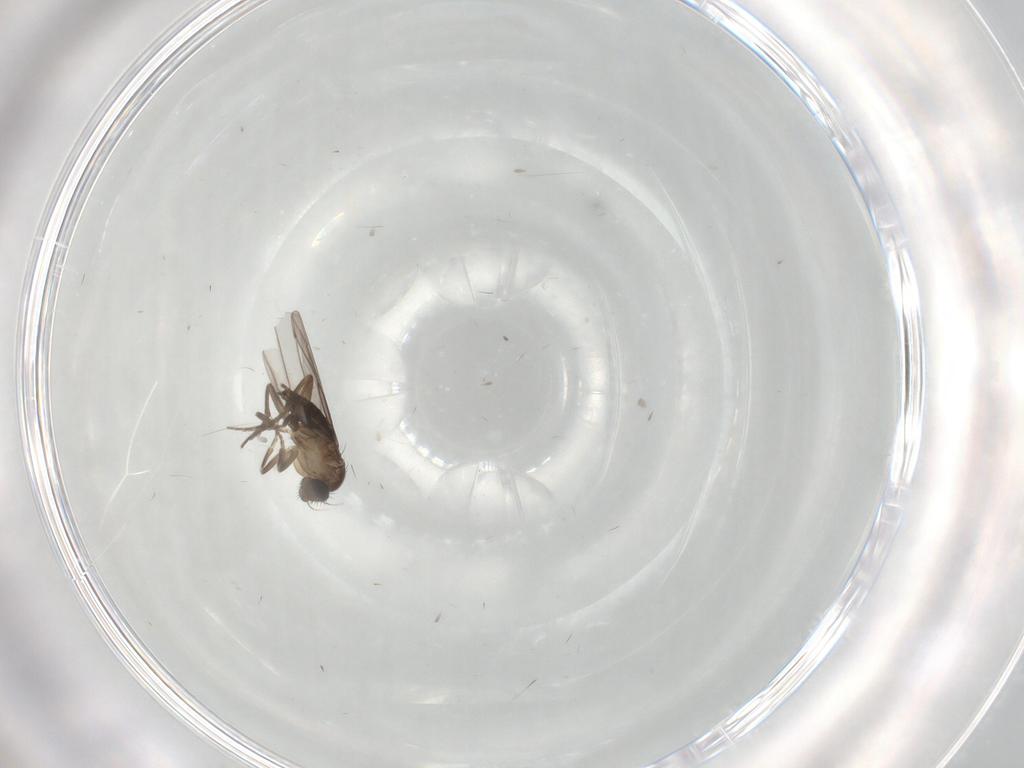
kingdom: Animalia
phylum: Arthropoda
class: Insecta
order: Diptera
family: Phoridae
